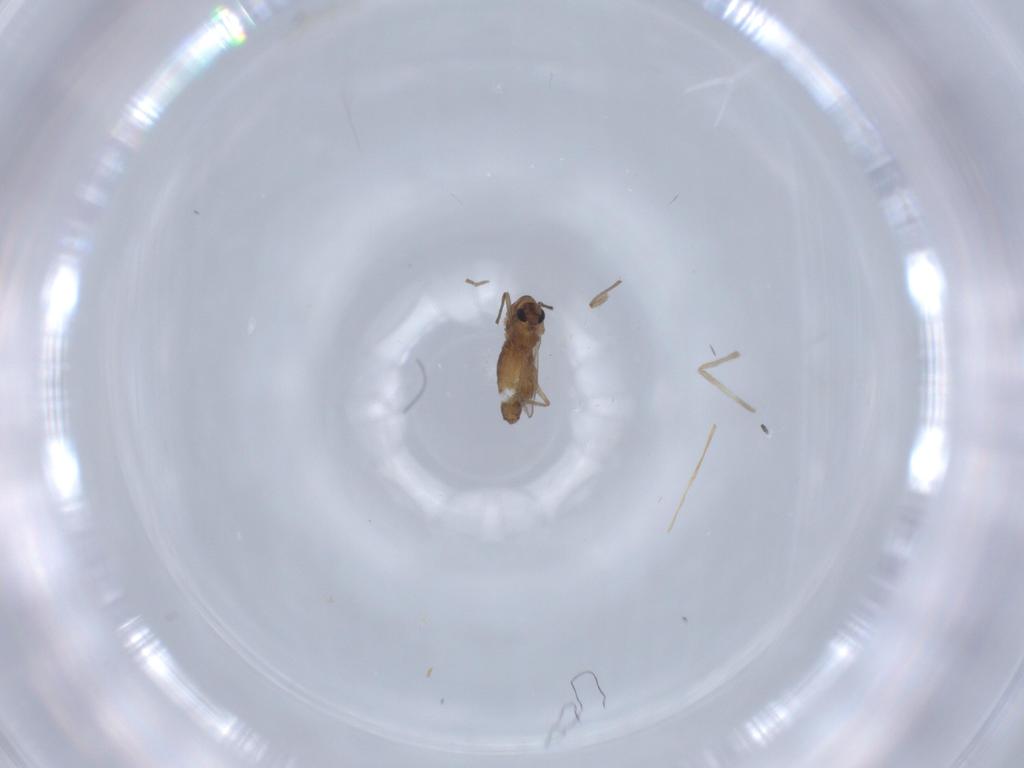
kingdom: Animalia
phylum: Arthropoda
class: Insecta
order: Diptera
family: Chironomidae
